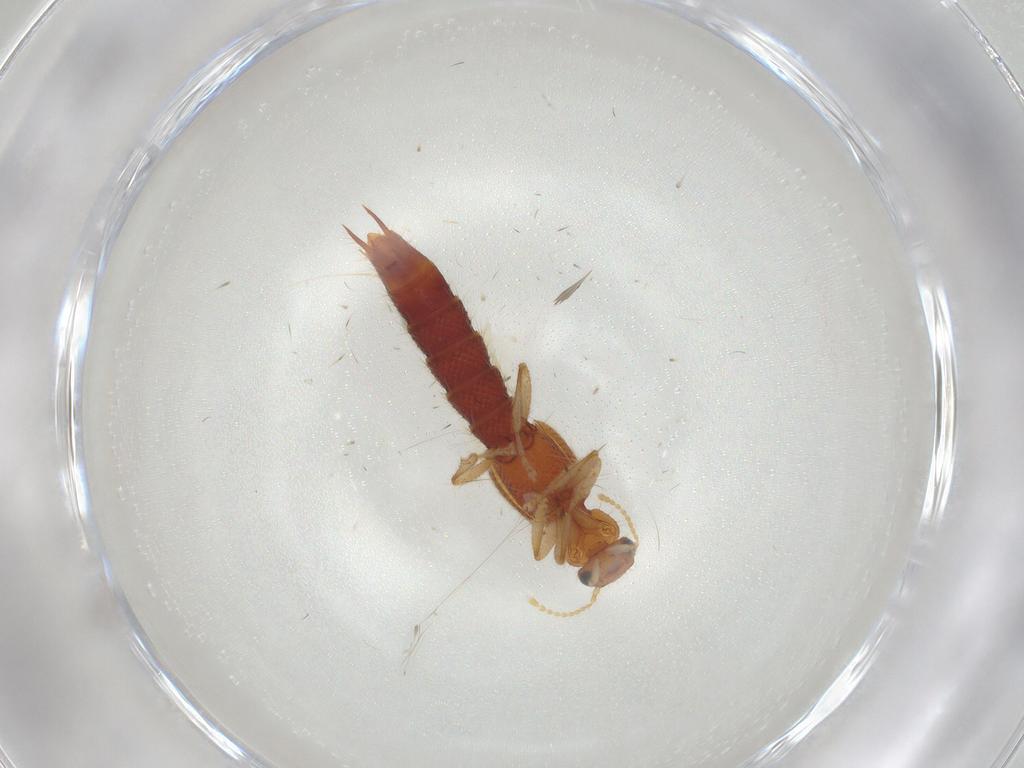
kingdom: Animalia
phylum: Arthropoda
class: Insecta
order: Coleoptera
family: Staphylinidae
